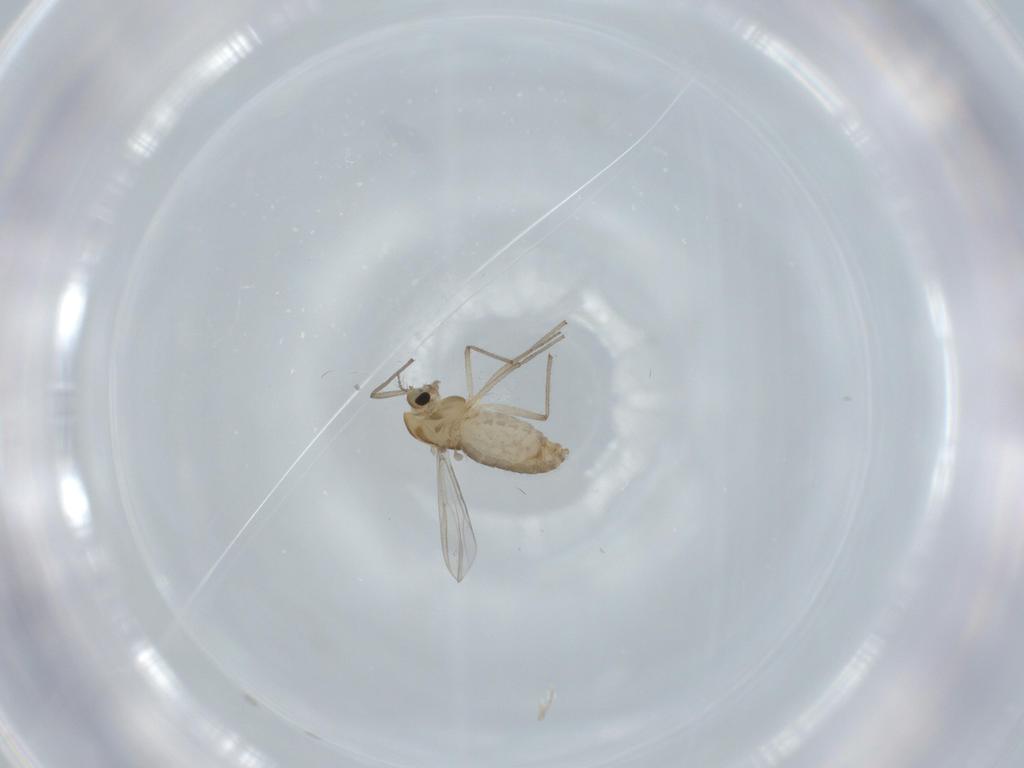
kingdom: Animalia
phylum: Arthropoda
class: Insecta
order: Diptera
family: Chironomidae
